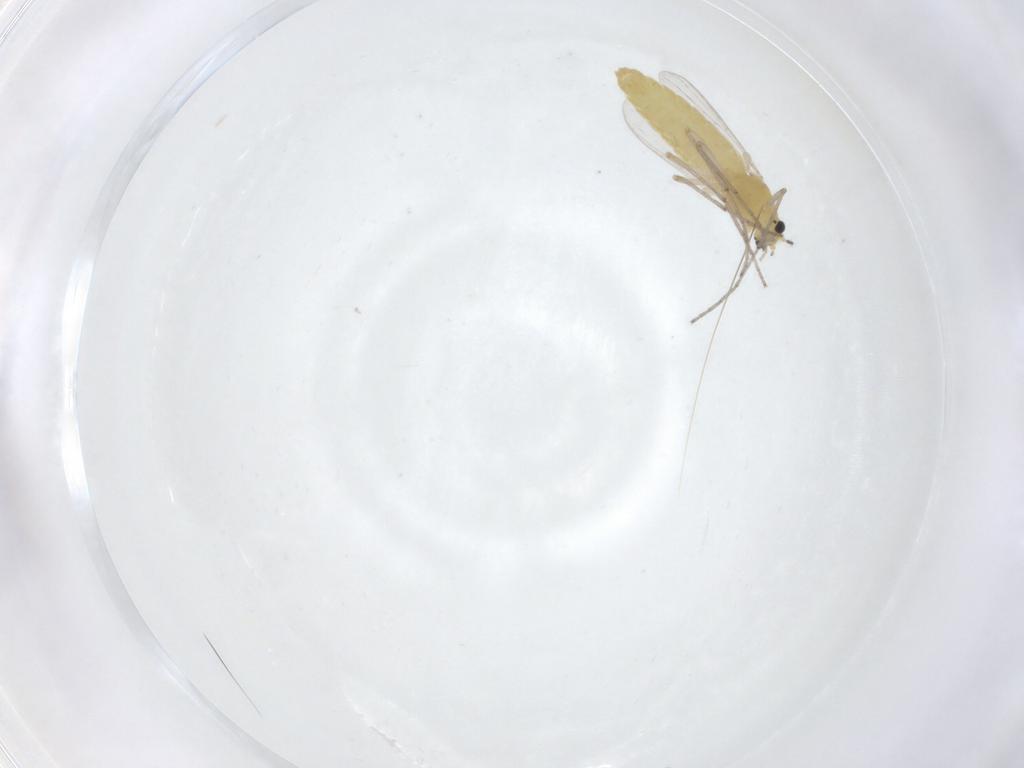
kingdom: Animalia
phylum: Arthropoda
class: Insecta
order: Diptera
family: Chironomidae
